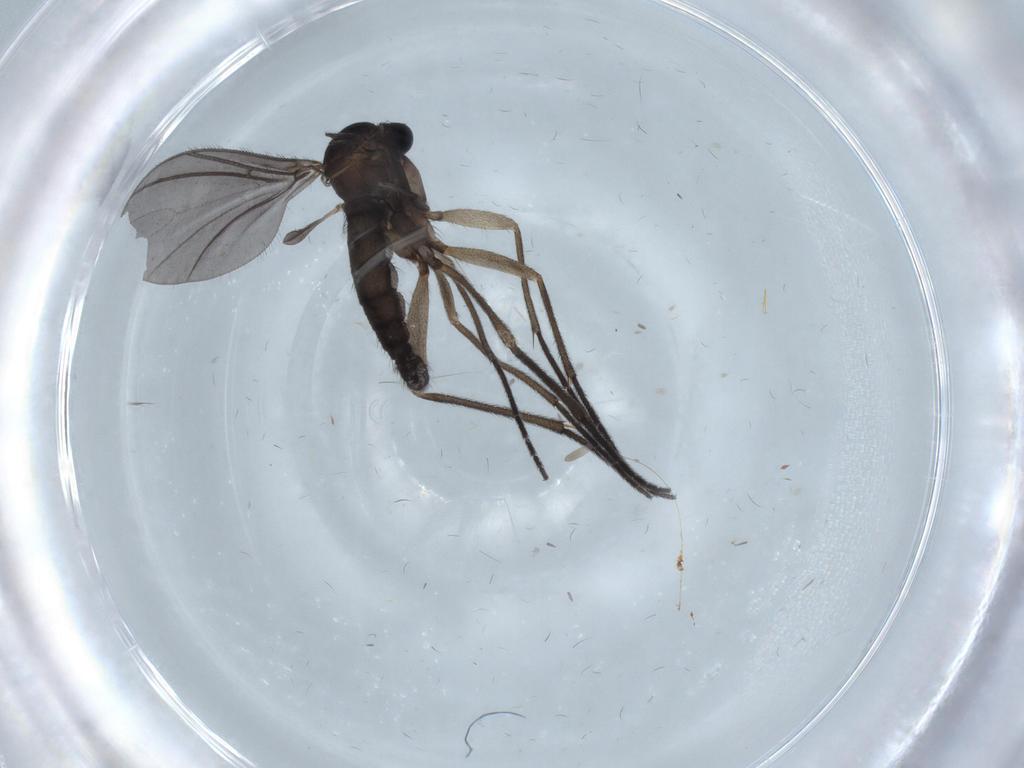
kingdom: Animalia
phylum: Arthropoda
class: Insecta
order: Diptera
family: Sciaridae
